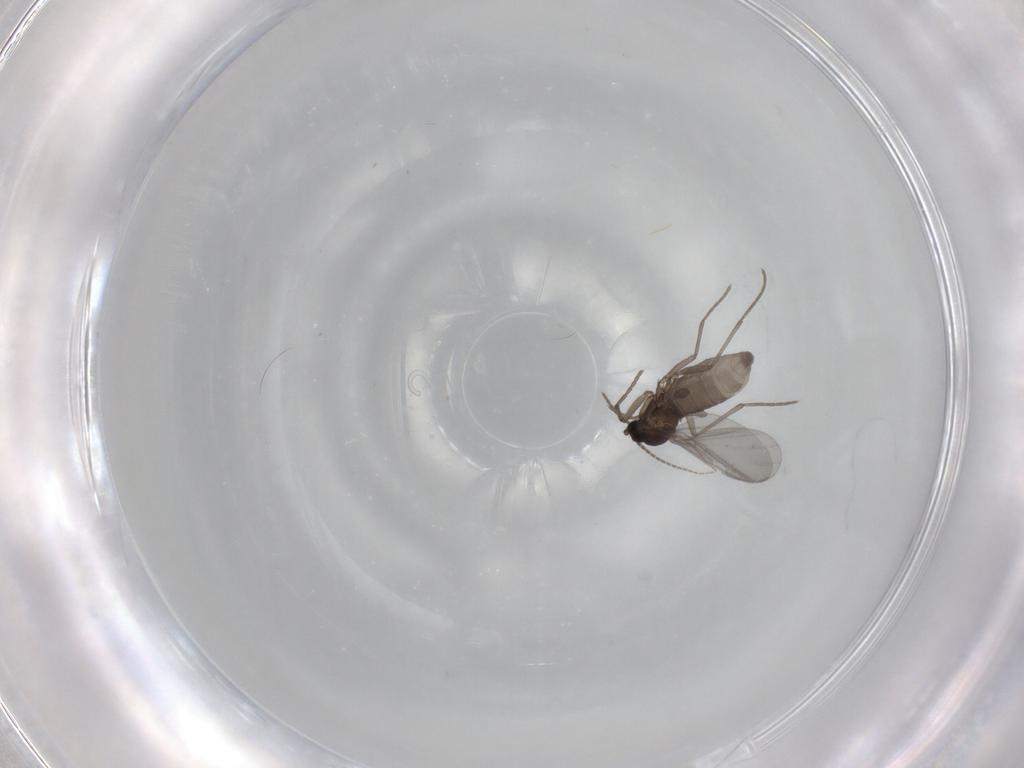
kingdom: Animalia
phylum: Arthropoda
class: Insecta
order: Diptera
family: Sciaridae
